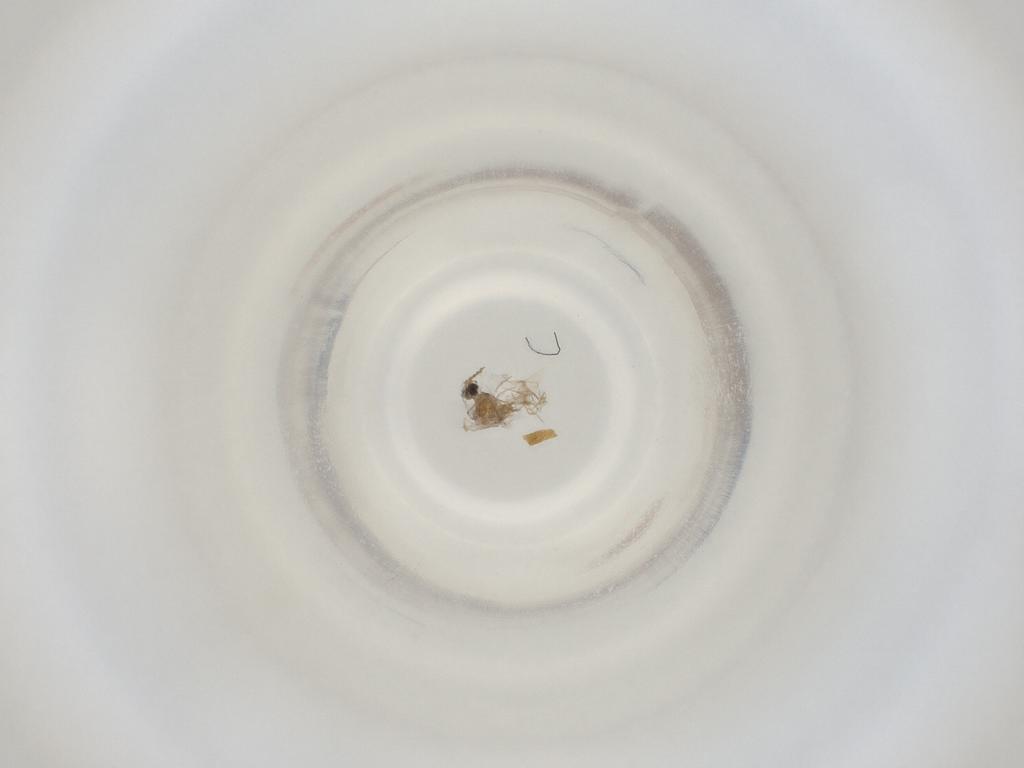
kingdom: Animalia
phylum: Arthropoda
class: Insecta
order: Diptera
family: Cecidomyiidae
